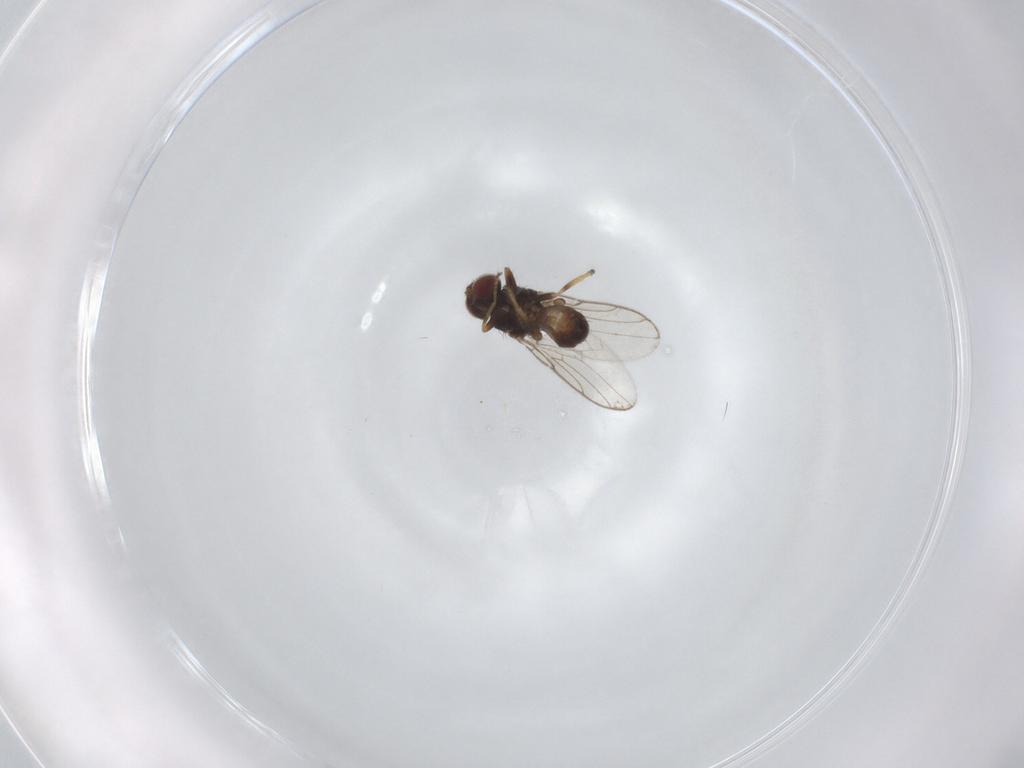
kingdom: Animalia
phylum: Arthropoda
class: Insecta
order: Diptera
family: Chloropidae
